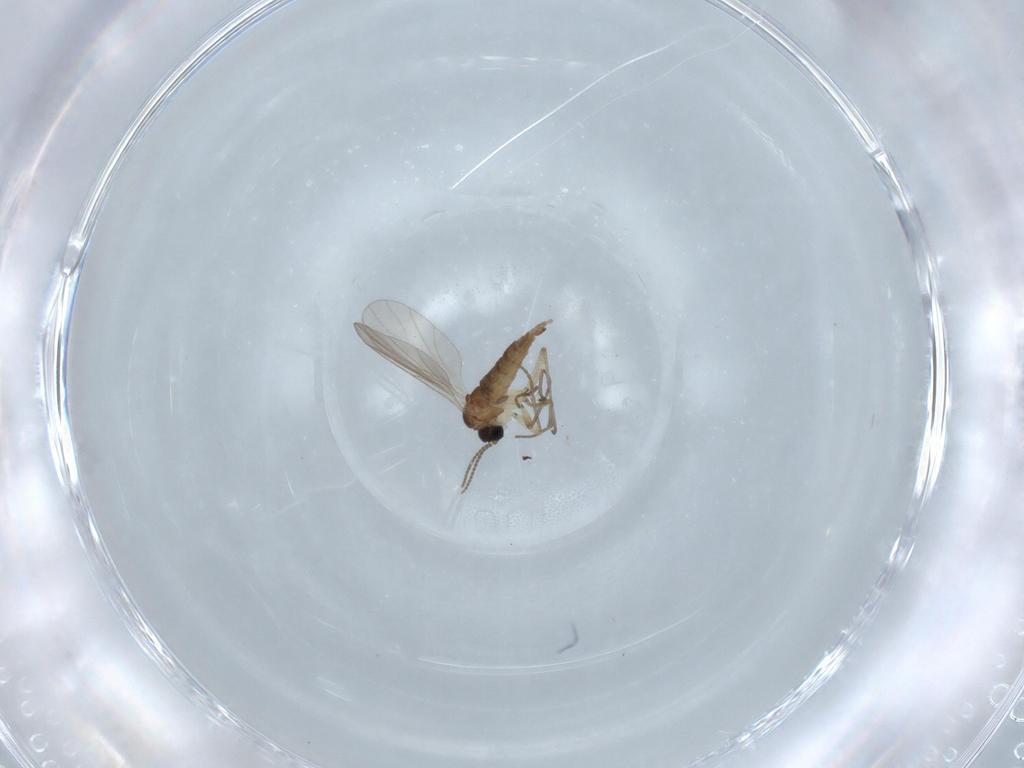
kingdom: Animalia
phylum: Arthropoda
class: Insecta
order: Diptera
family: Sciaridae
